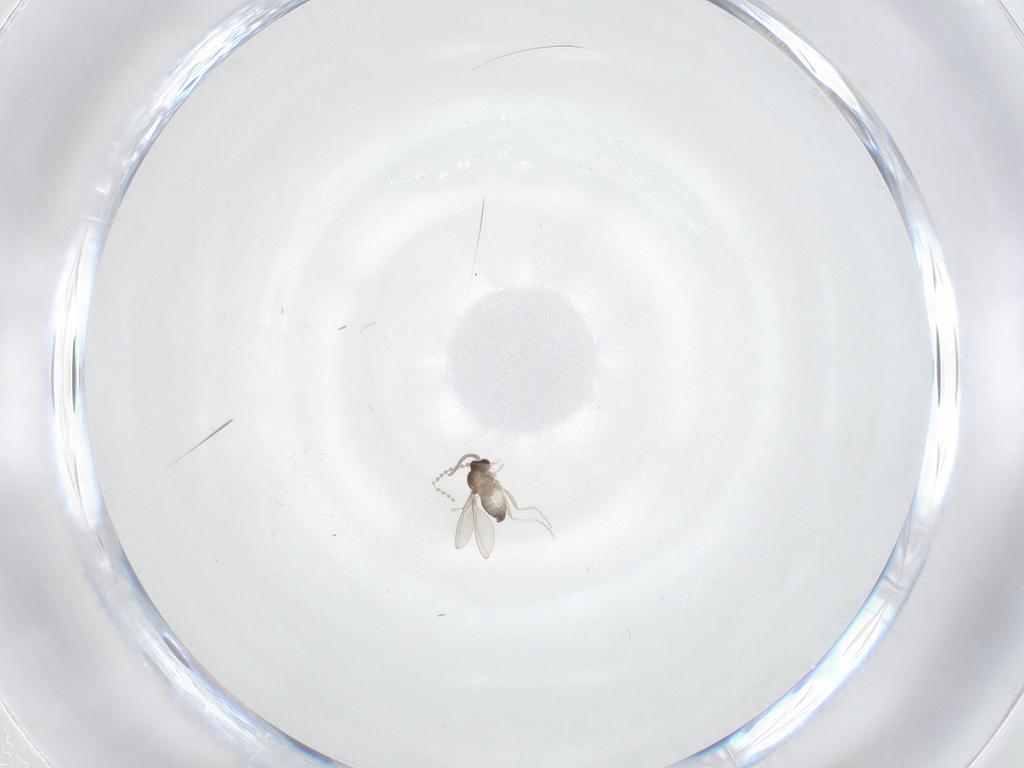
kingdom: Animalia
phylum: Arthropoda
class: Insecta
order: Diptera
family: Cecidomyiidae
